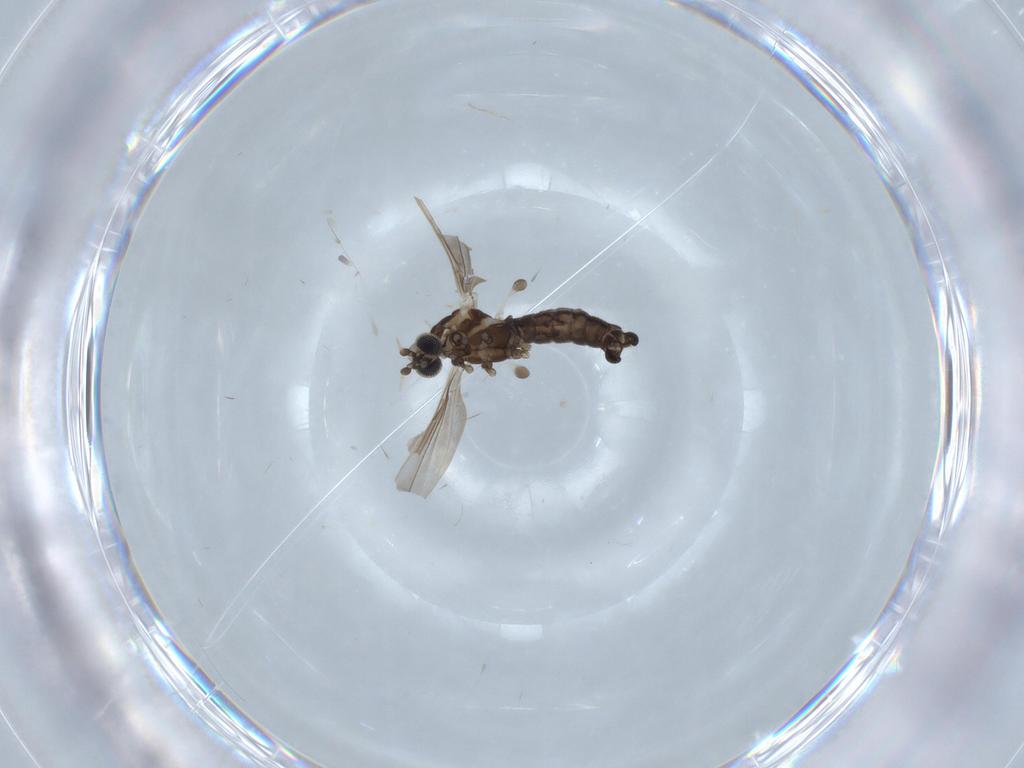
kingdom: Animalia
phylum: Arthropoda
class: Insecta
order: Diptera
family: Limoniidae
